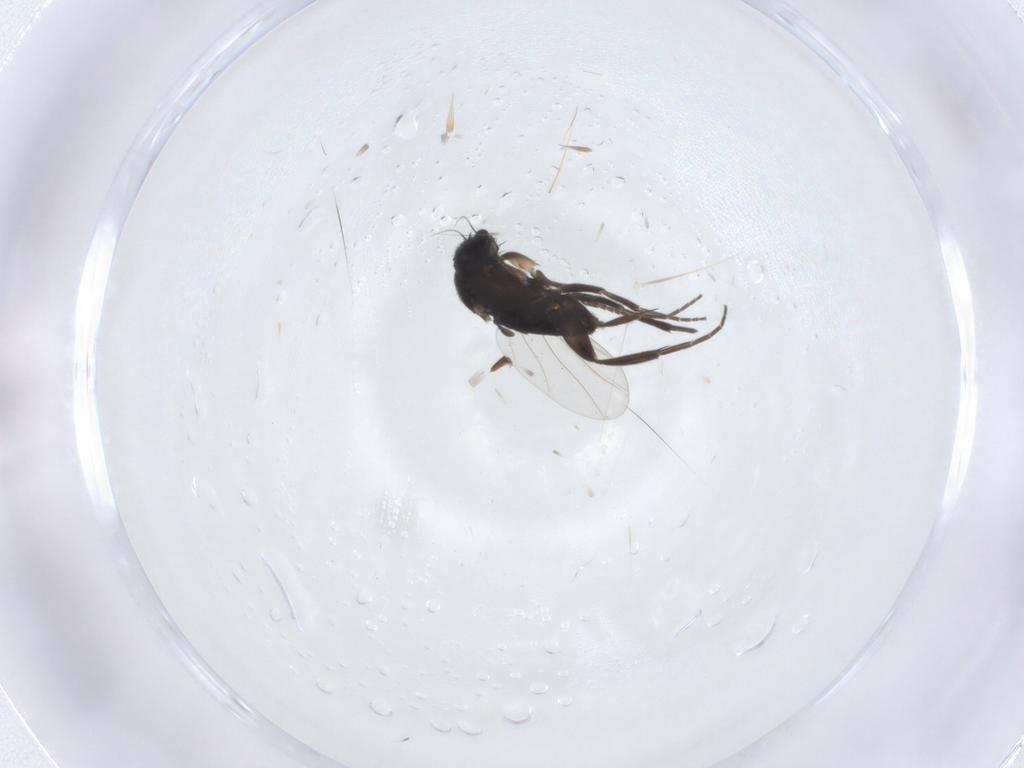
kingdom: Animalia
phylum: Arthropoda
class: Insecta
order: Diptera
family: Phoridae
